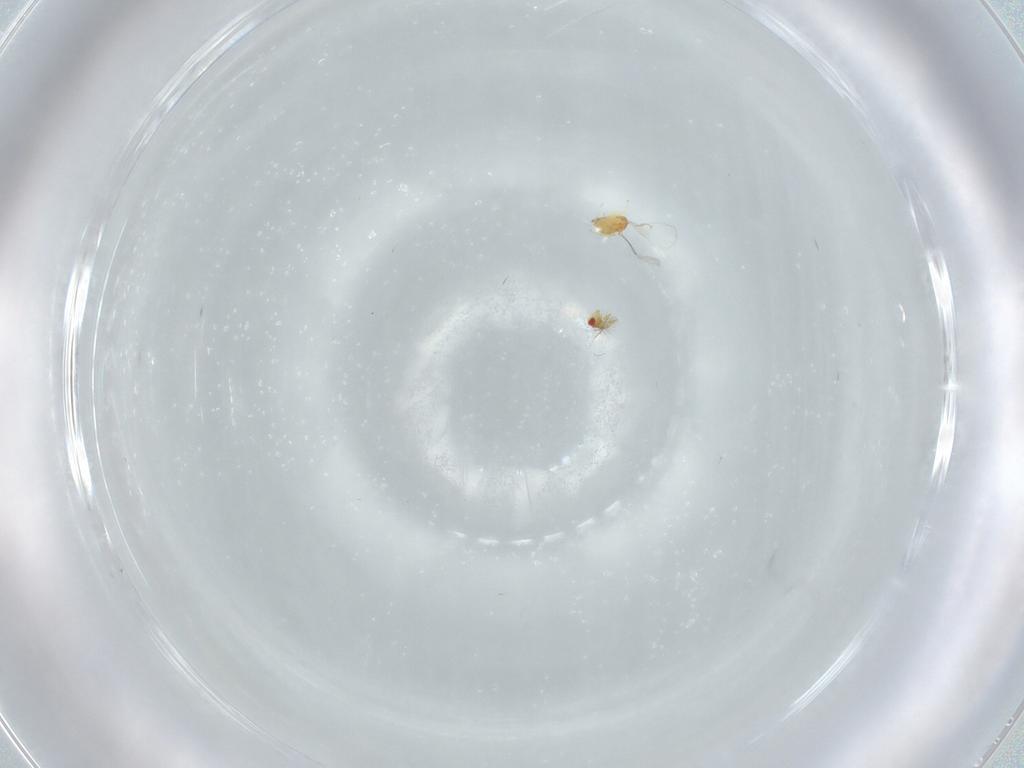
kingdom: Animalia
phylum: Arthropoda
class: Insecta
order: Hymenoptera
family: Trichogrammatidae
